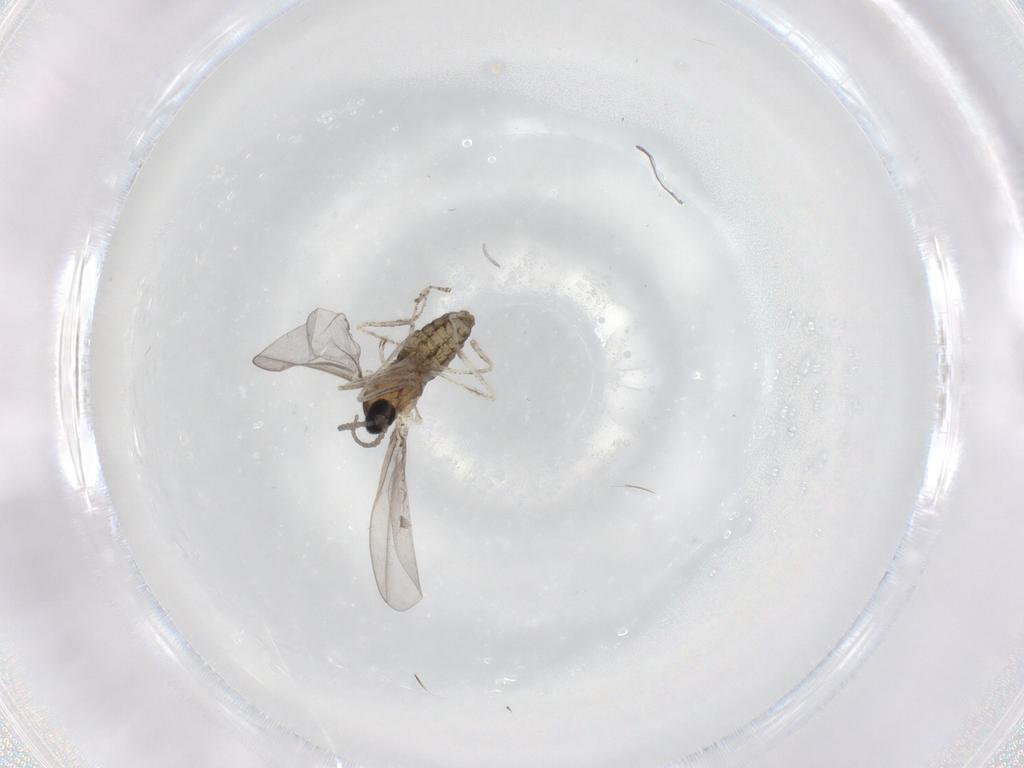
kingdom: Animalia
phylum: Arthropoda
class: Insecta
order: Diptera
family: Cecidomyiidae
